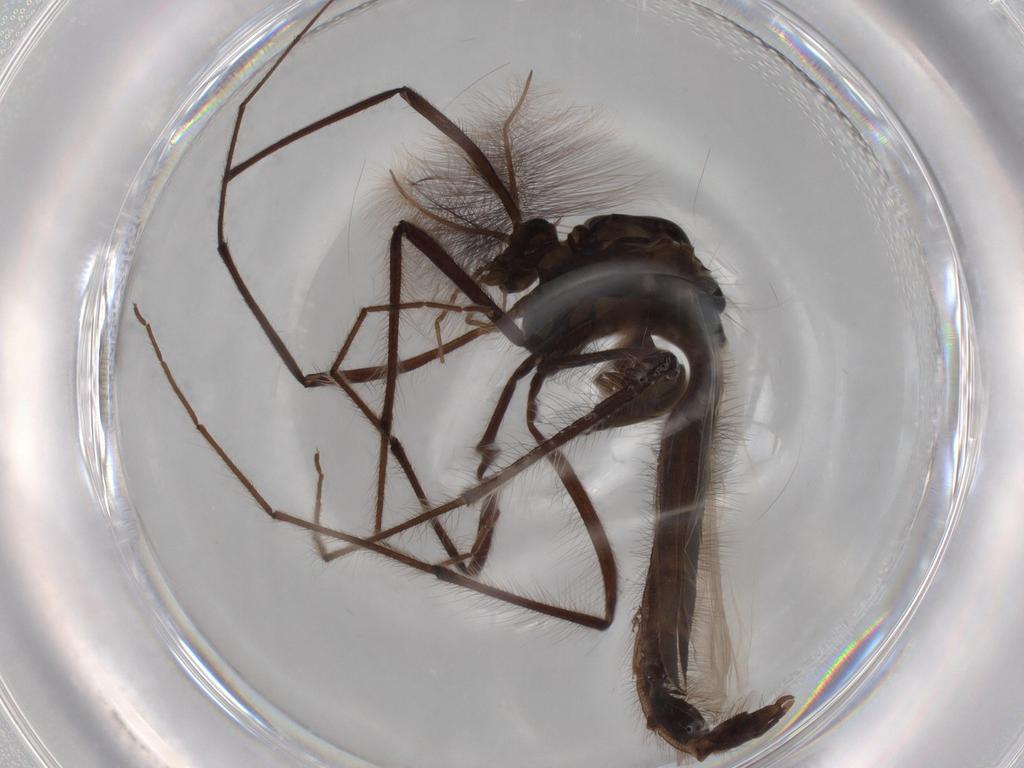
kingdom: Animalia
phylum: Arthropoda
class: Insecta
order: Diptera
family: Chironomidae
